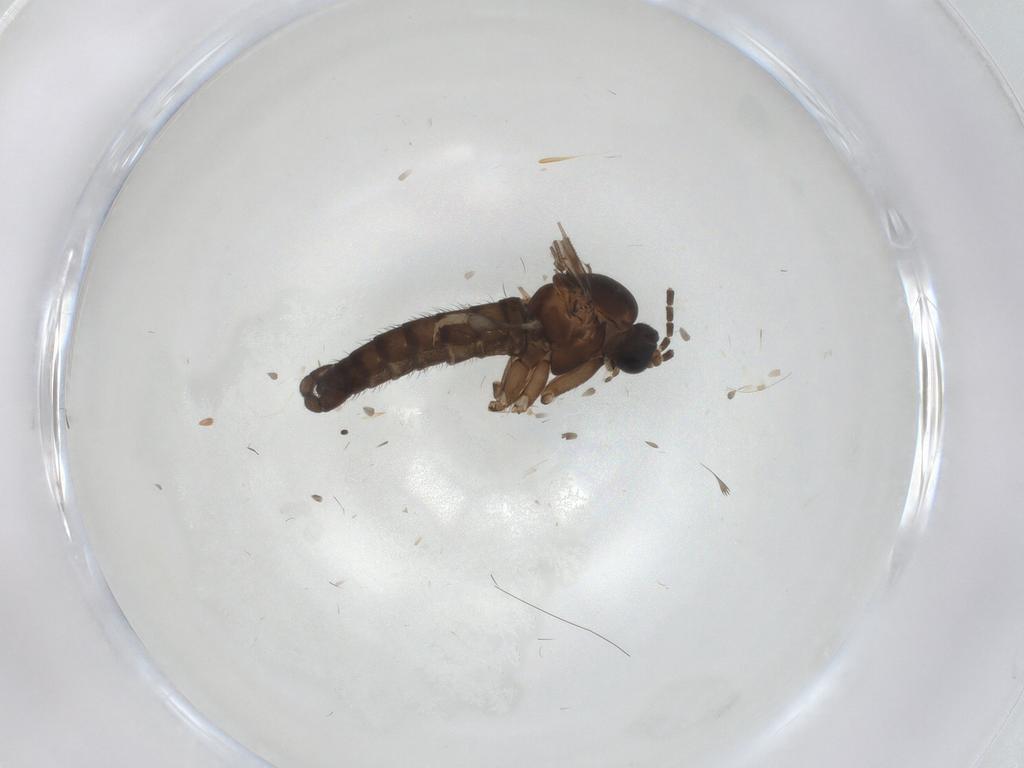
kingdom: Animalia
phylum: Arthropoda
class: Insecta
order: Diptera
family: Sciaridae
